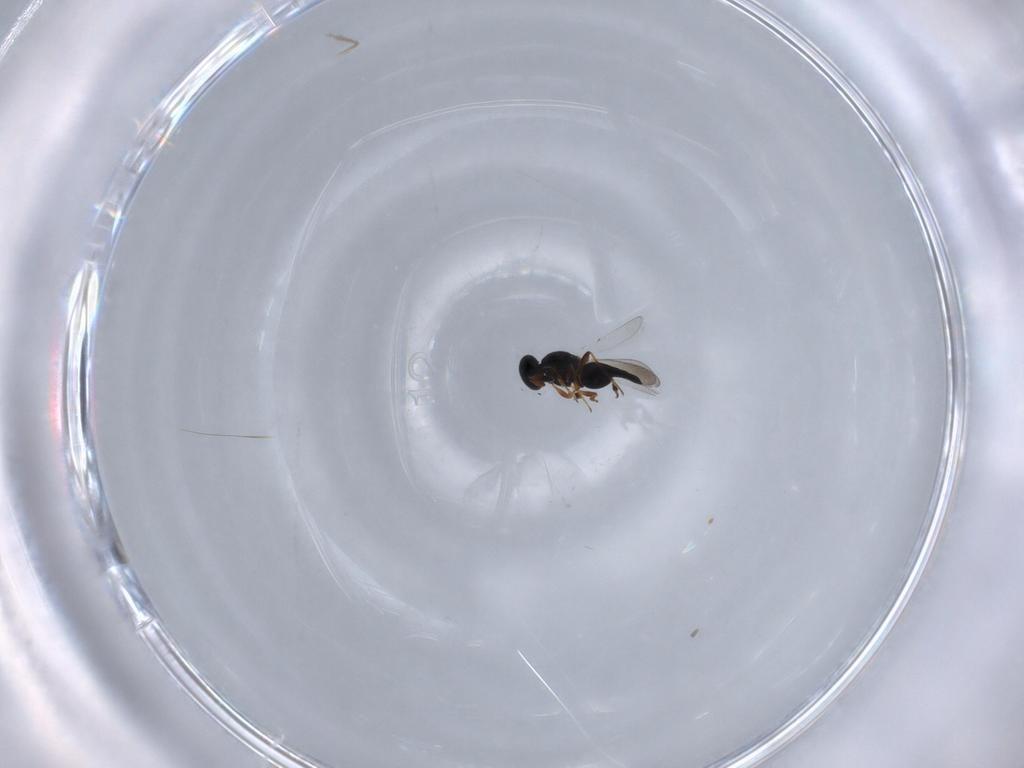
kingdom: Animalia
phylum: Arthropoda
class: Insecta
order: Hymenoptera
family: Platygastridae
